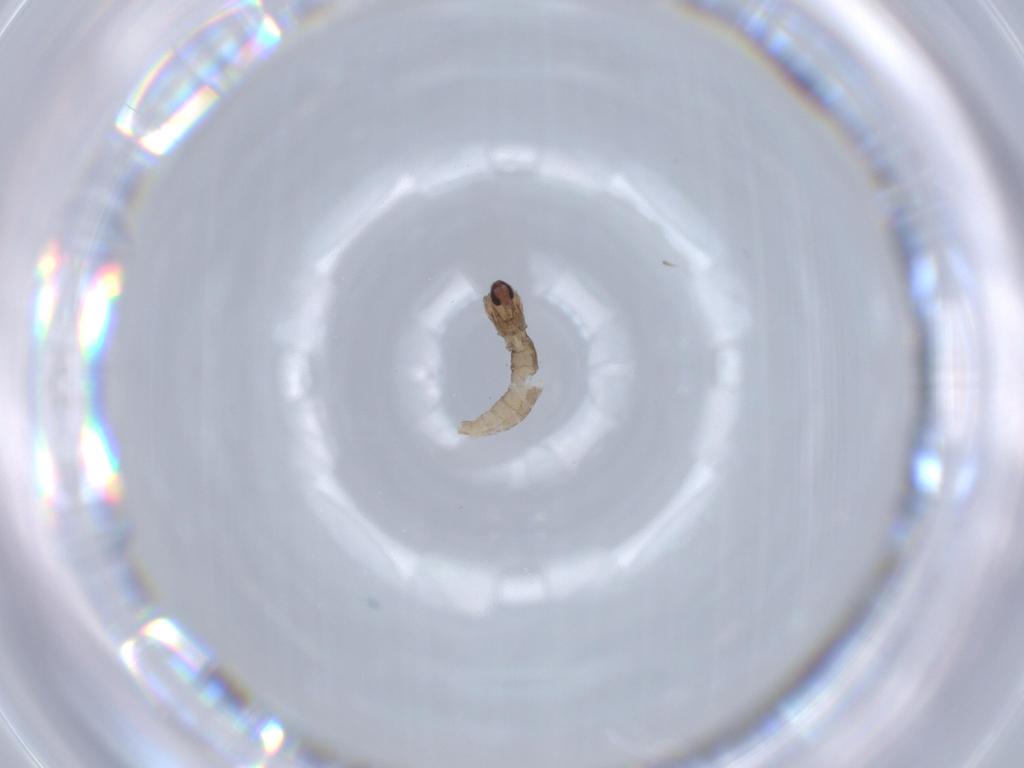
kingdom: Animalia
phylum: Arthropoda
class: Insecta
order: Diptera
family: Cecidomyiidae
